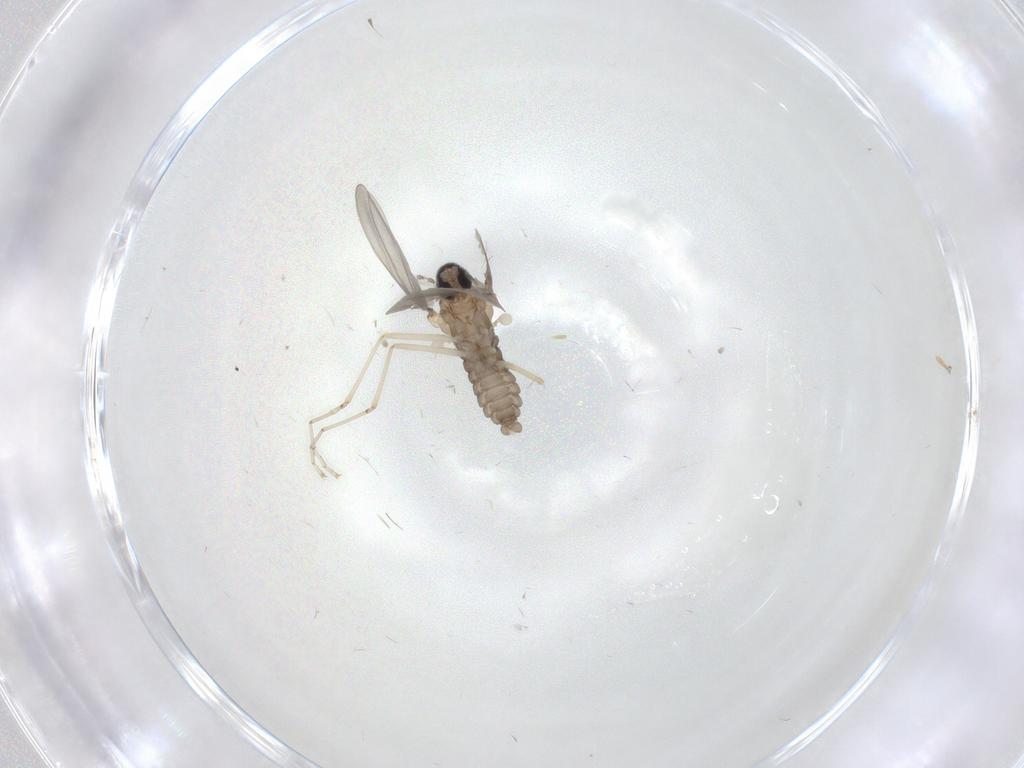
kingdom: Animalia
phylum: Arthropoda
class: Insecta
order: Diptera
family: Cecidomyiidae
